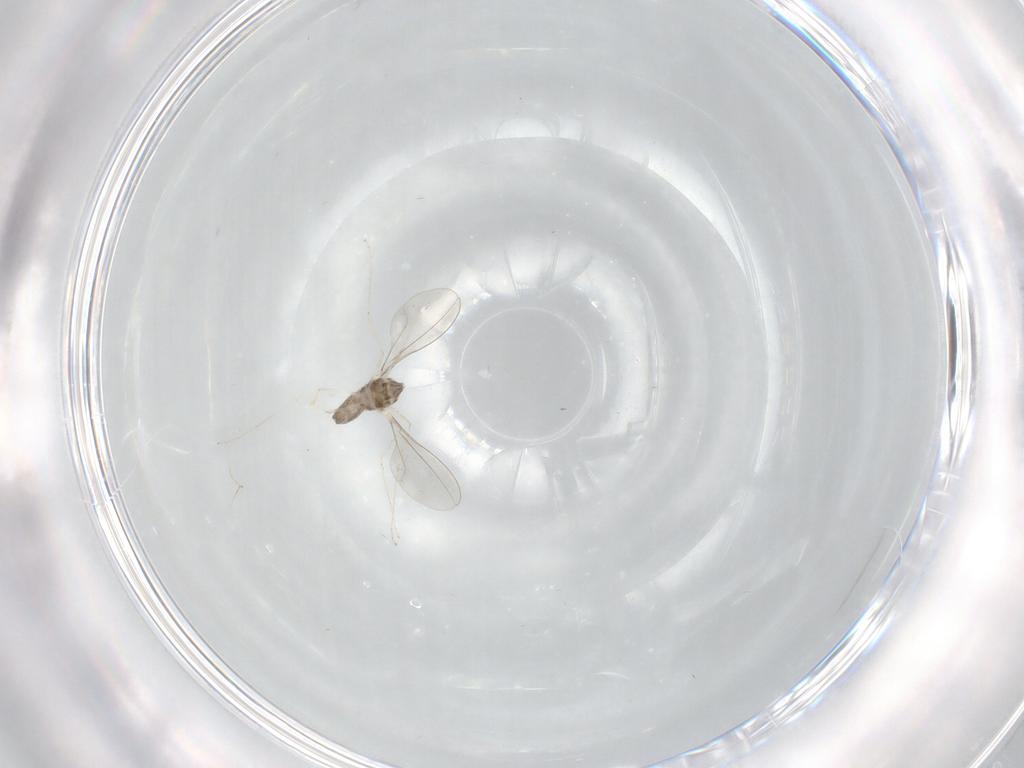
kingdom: Animalia
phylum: Arthropoda
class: Insecta
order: Diptera
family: Cecidomyiidae
